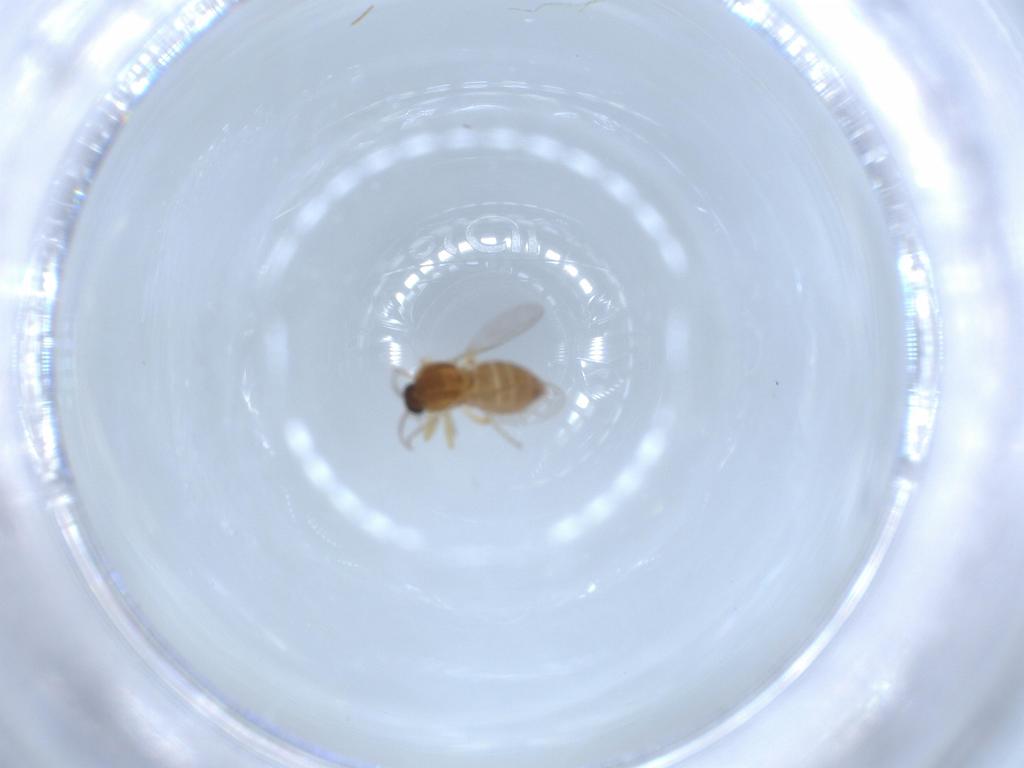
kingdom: Animalia
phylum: Arthropoda
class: Insecta
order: Diptera
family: Ceratopogonidae
